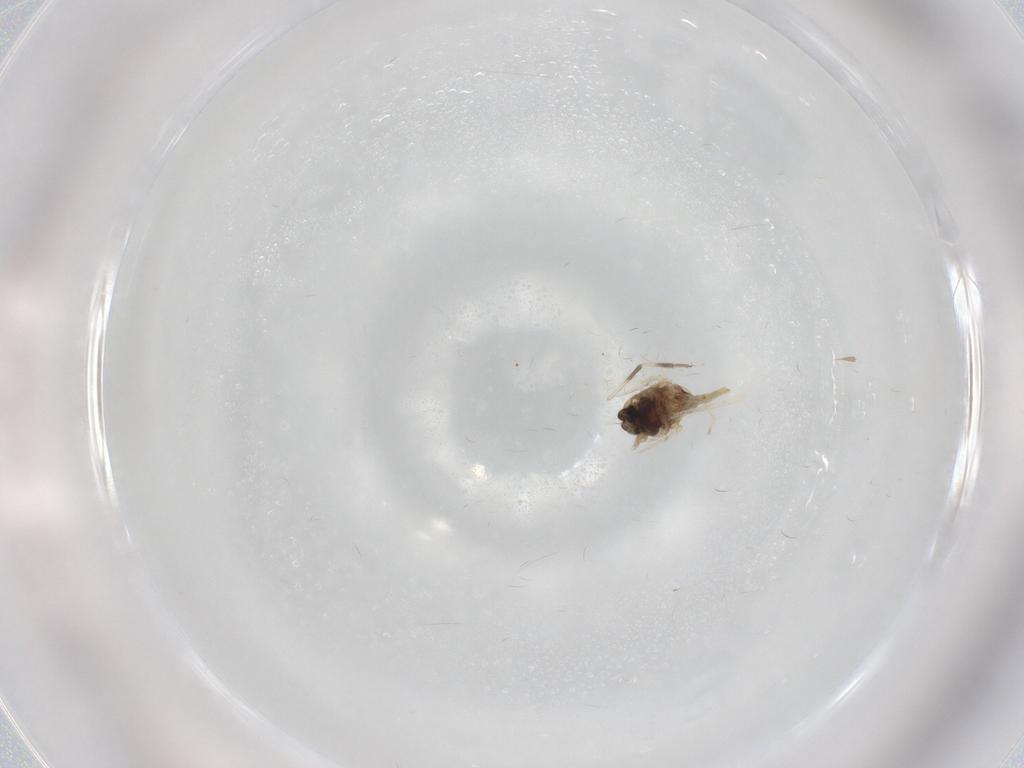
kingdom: Animalia
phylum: Arthropoda
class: Insecta
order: Diptera
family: Chironomidae
